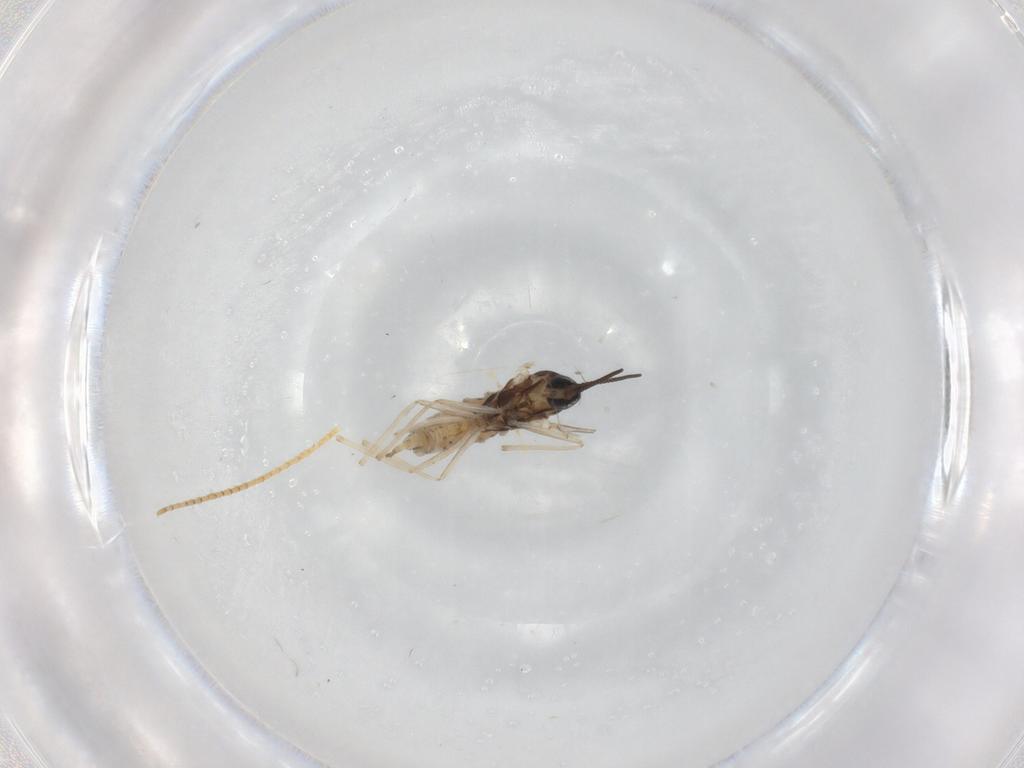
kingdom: Animalia
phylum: Arthropoda
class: Insecta
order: Diptera
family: Cecidomyiidae
